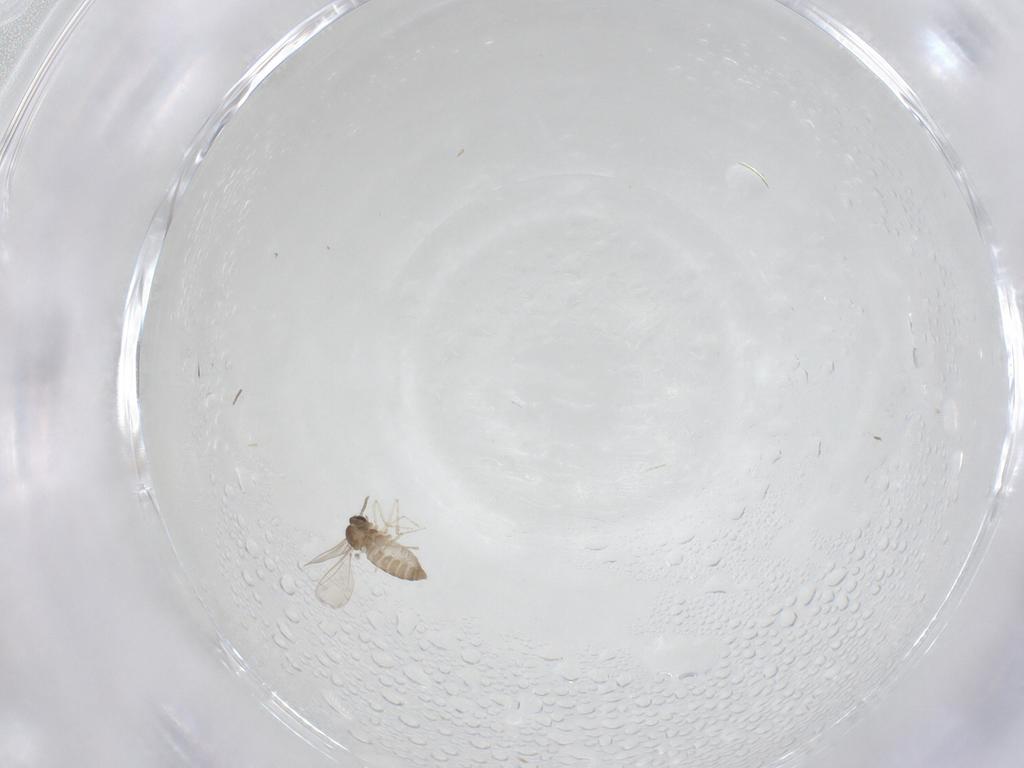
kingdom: Animalia
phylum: Arthropoda
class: Insecta
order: Diptera
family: Cecidomyiidae
